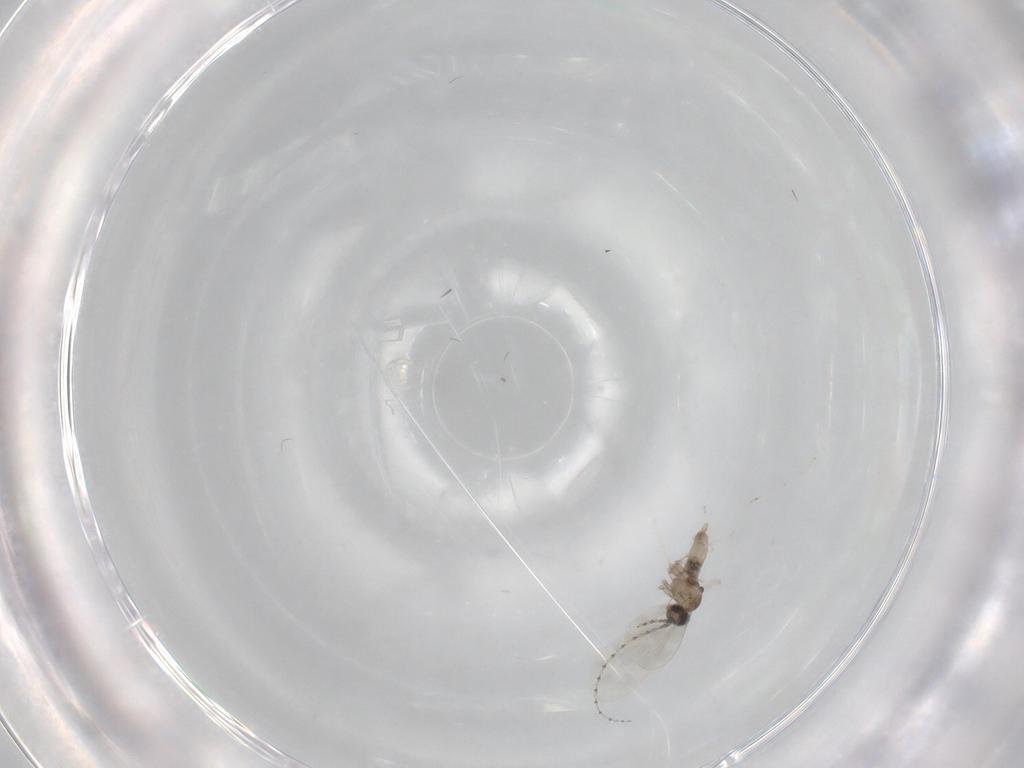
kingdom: Animalia
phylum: Arthropoda
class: Insecta
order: Diptera
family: Cecidomyiidae
